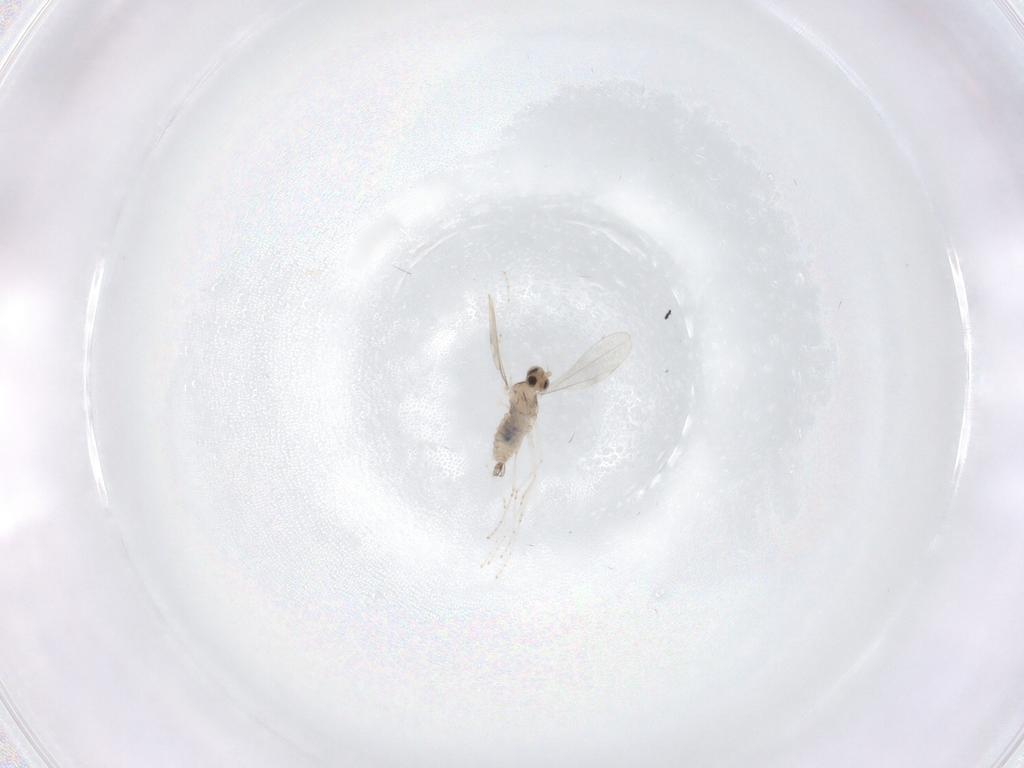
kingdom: Animalia
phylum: Arthropoda
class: Insecta
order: Diptera
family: Cecidomyiidae
